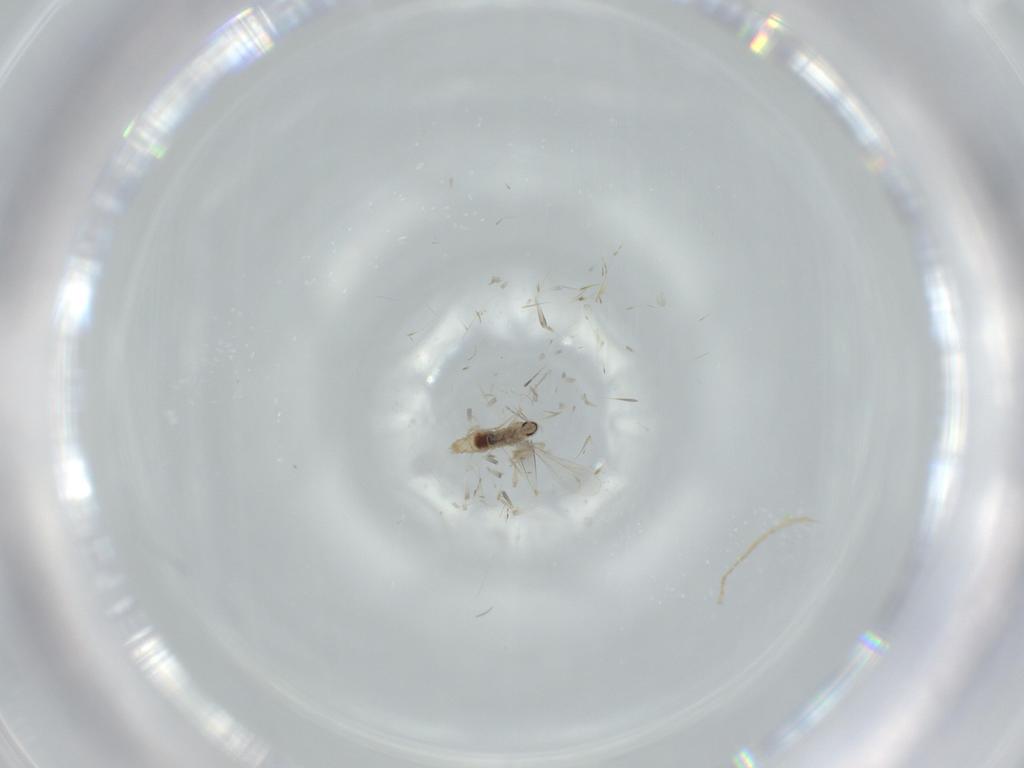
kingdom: Animalia
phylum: Arthropoda
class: Insecta
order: Diptera
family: Cecidomyiidae
